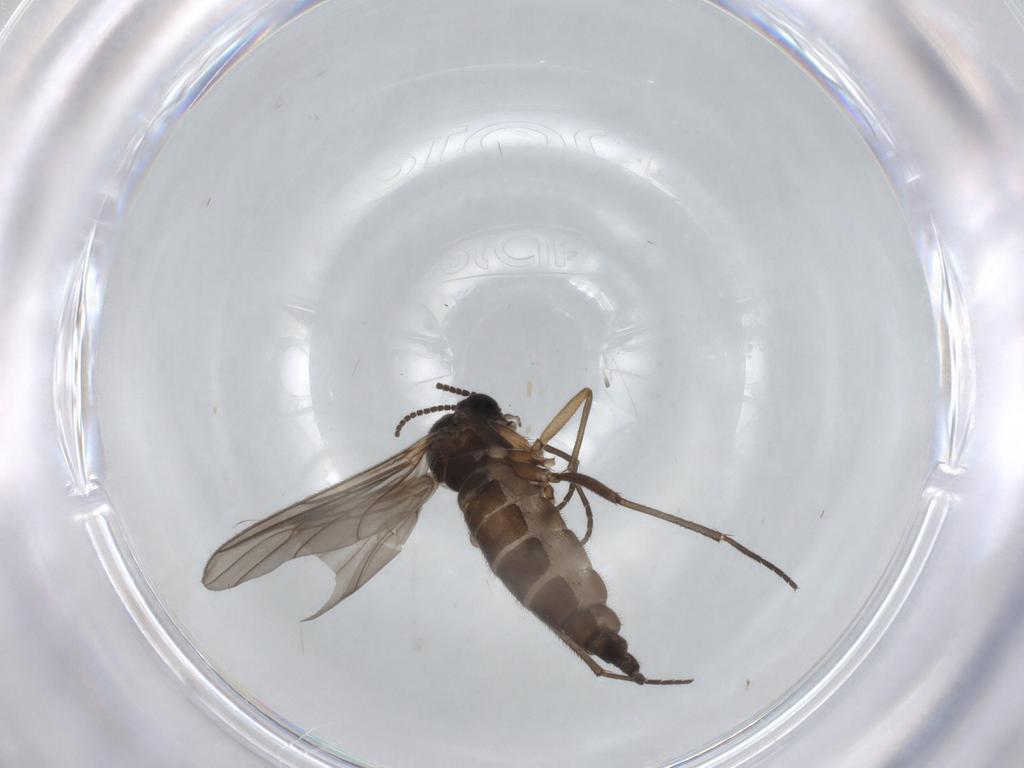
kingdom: Animalia
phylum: Arthropoda
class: Insecta
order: Diptera
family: Sciaridae
